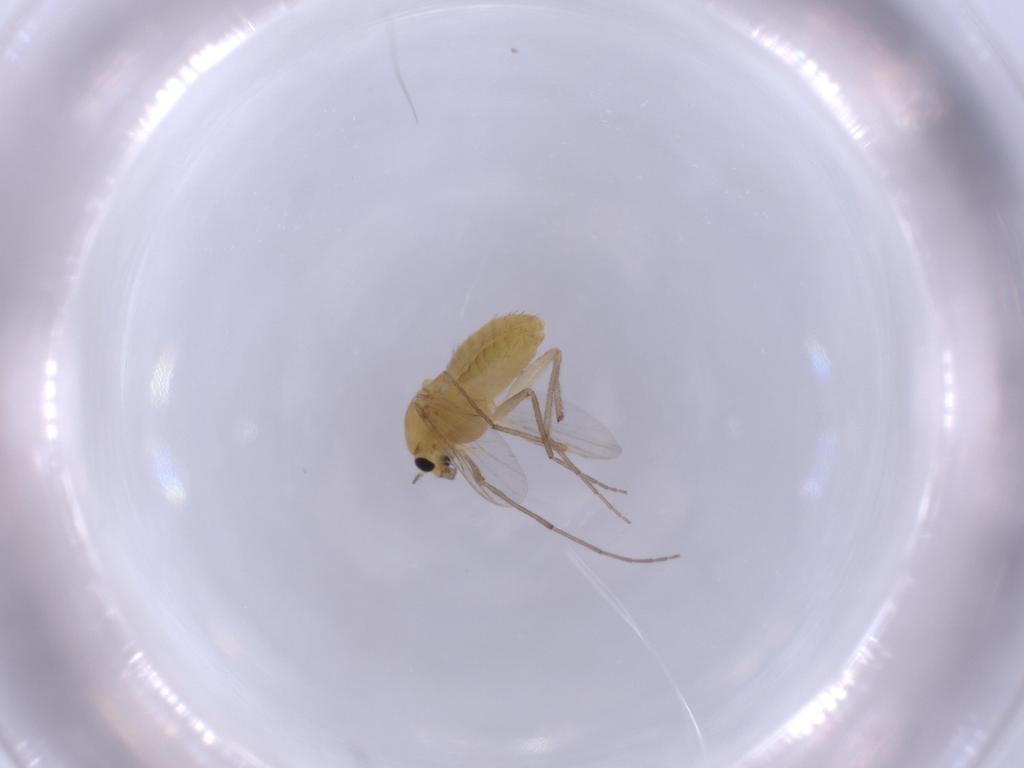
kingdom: Animalia
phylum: Arthropoda
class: Insecta
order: Diptera
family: Chironomidae
